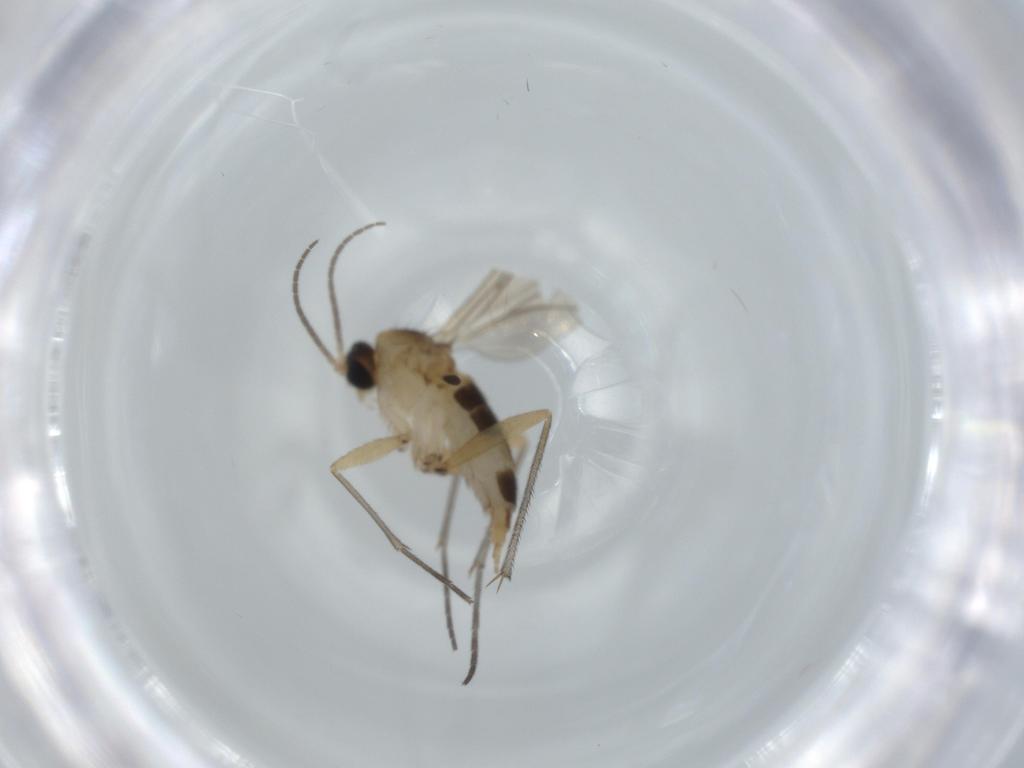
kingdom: Animalia
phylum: Arthropoda
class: Insecta
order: Diptera
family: Sciaridae
